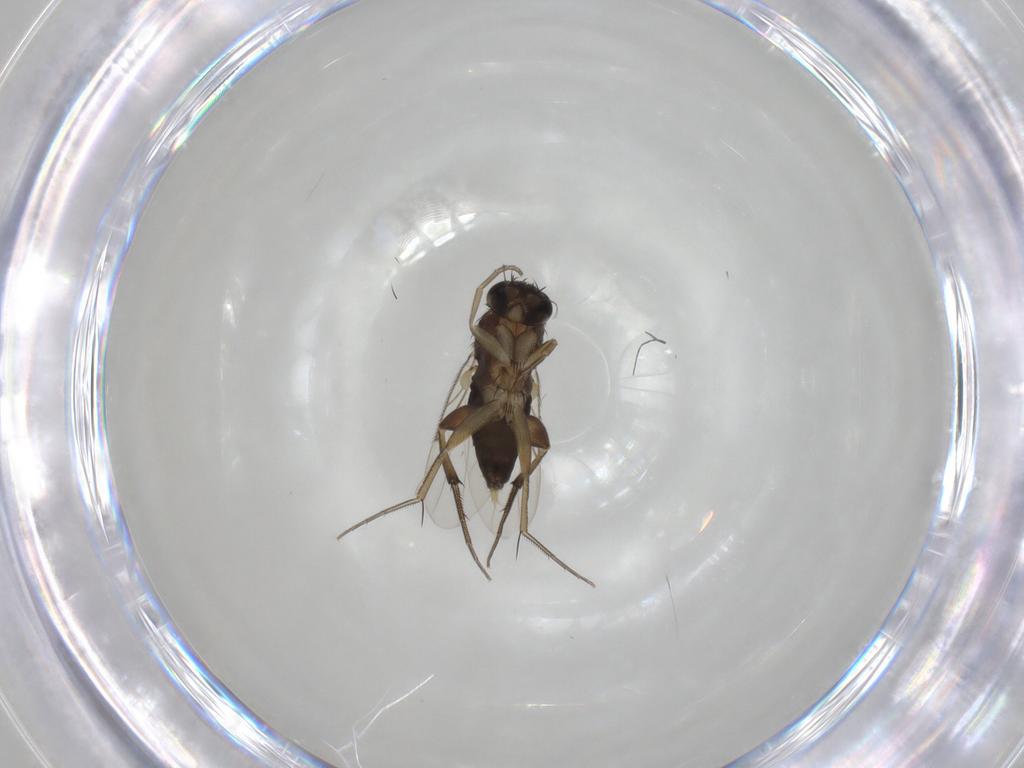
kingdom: Animalia
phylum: Arthropoda
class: Insecta
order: Diptera
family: Phoridae
